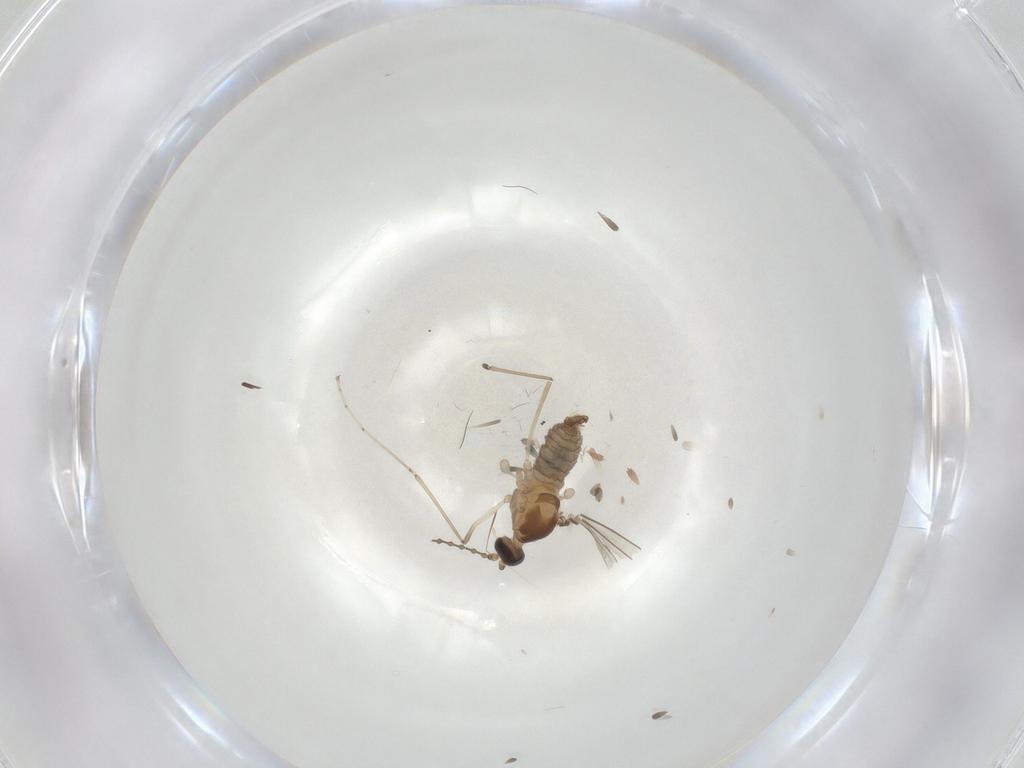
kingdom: Animalia
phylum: Arthropoda
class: Insecta
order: Diptera
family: Cecidomyiidae
